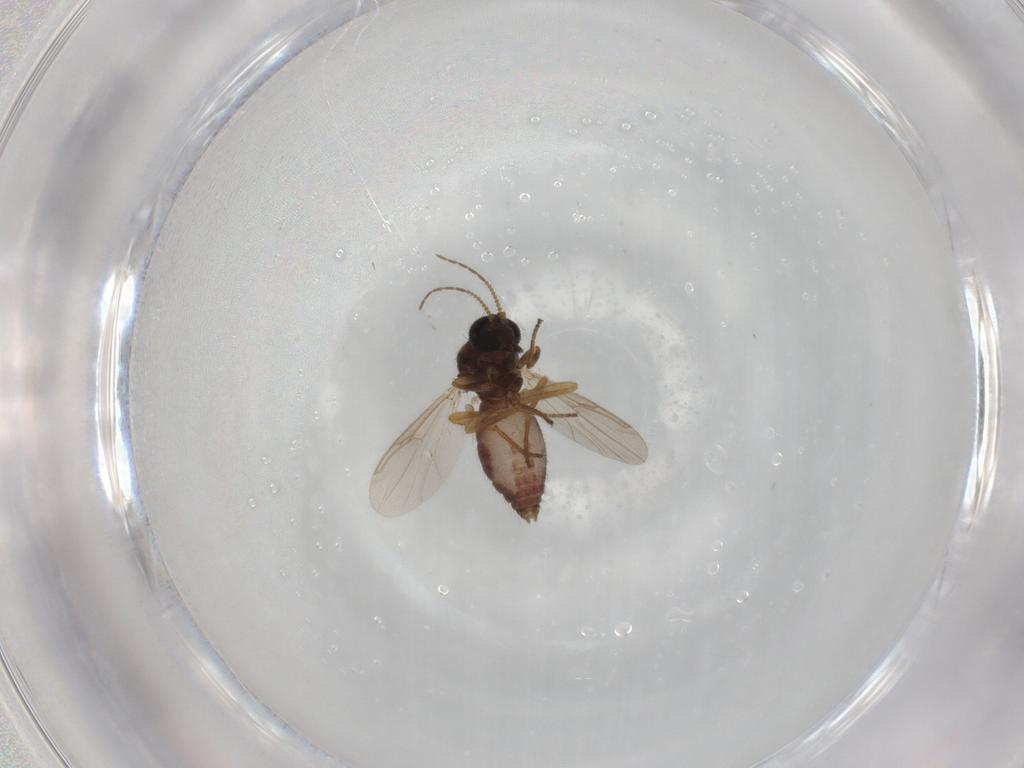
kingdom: Animalia
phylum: Arthropoda
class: Insecta
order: Diptera
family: Ceratopogonidae
